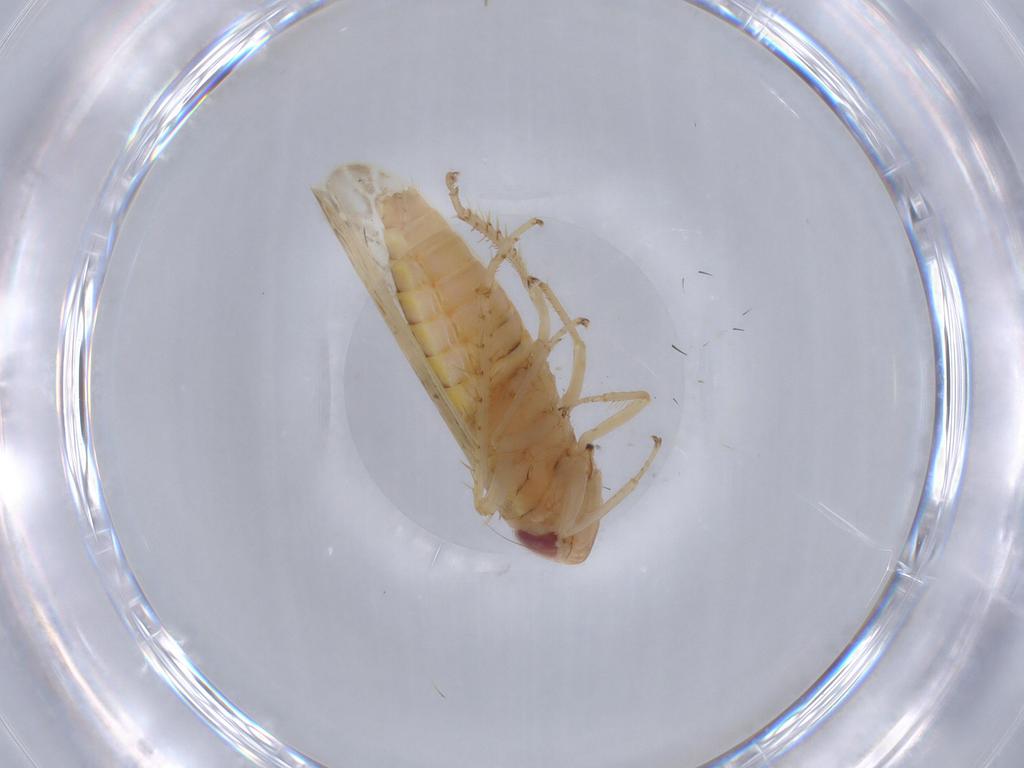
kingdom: Animalia
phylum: Arthropoda
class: Insecta
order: Hemiptera
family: Cicadellidae
